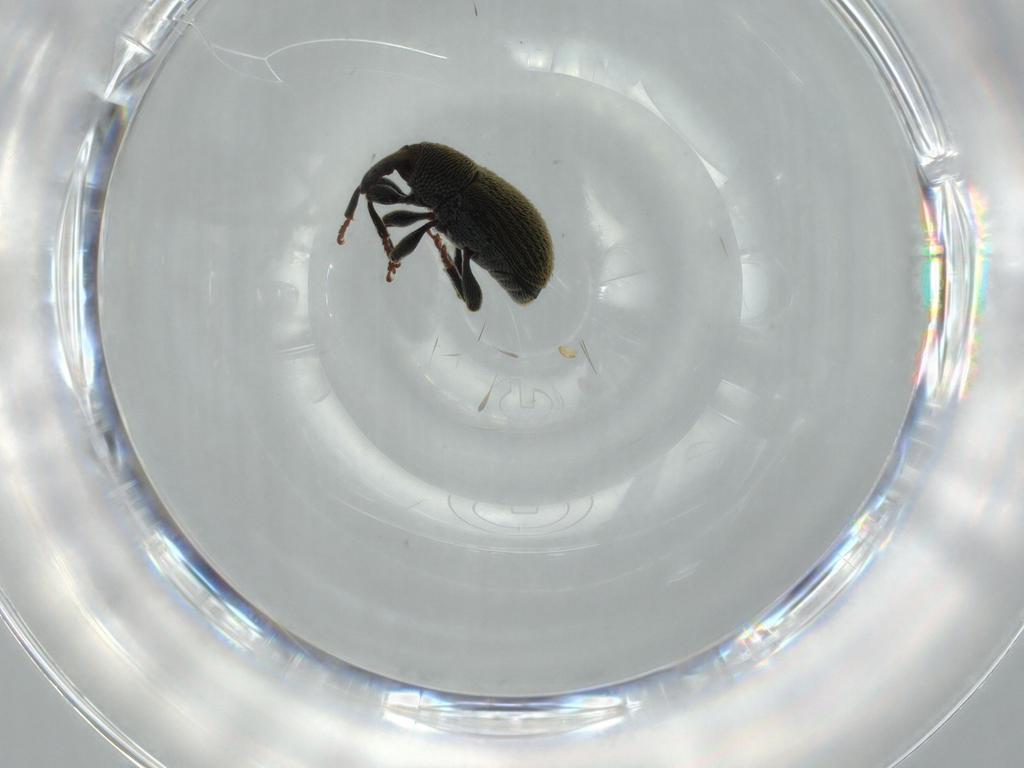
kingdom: Animalia
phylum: Arthropoda
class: Insecta
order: Coleoptera
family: Curculionidae
